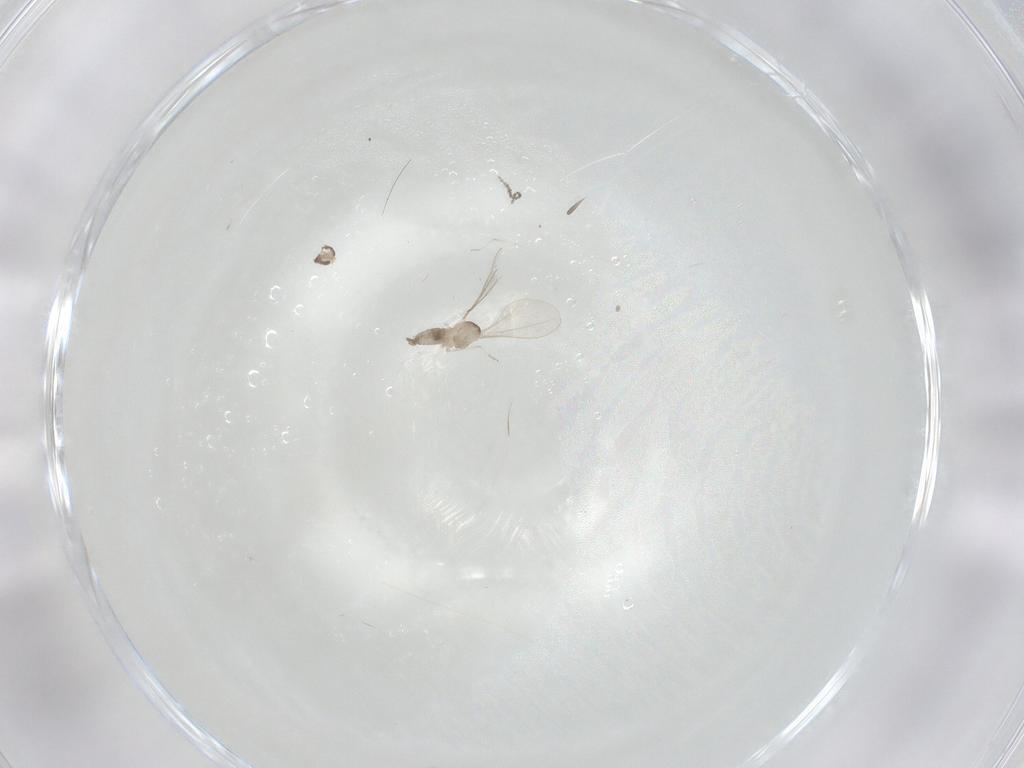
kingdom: Animalia
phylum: Arthropoda
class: Insecta
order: Diptera
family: Cecidomyiidae
